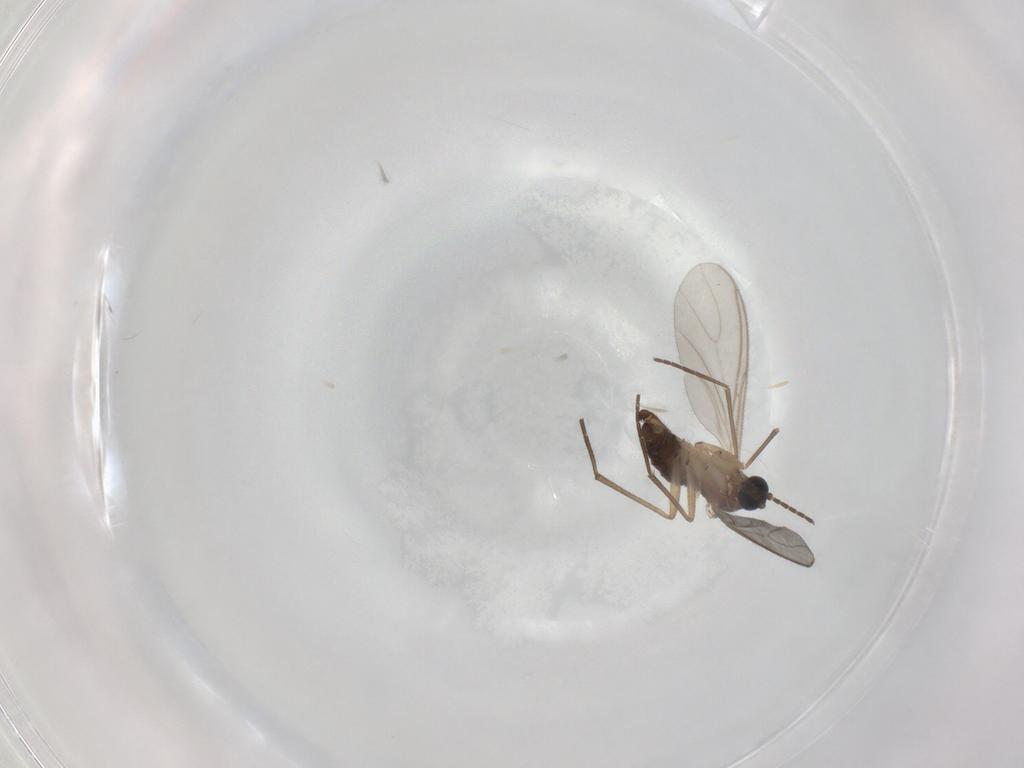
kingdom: Animalia
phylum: Arthropoda
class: Insecta
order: Diptera
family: Sciaridae
